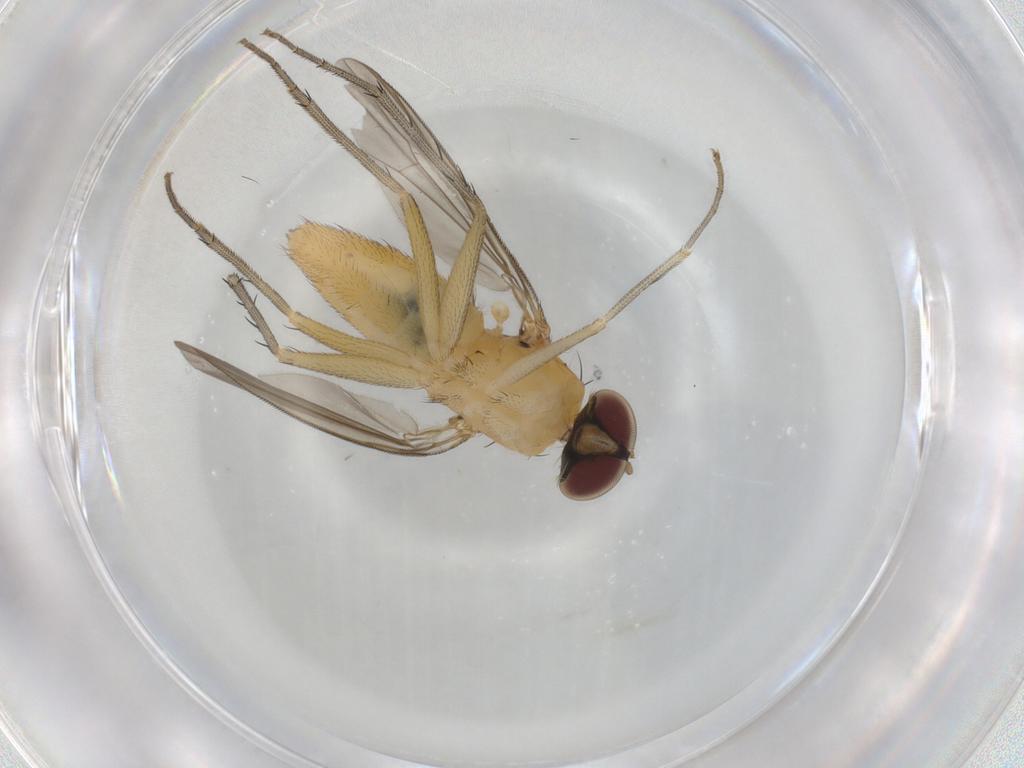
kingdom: Animalia
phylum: Arthropoda
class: Insecta
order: Diptera
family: Dolichopodidae
